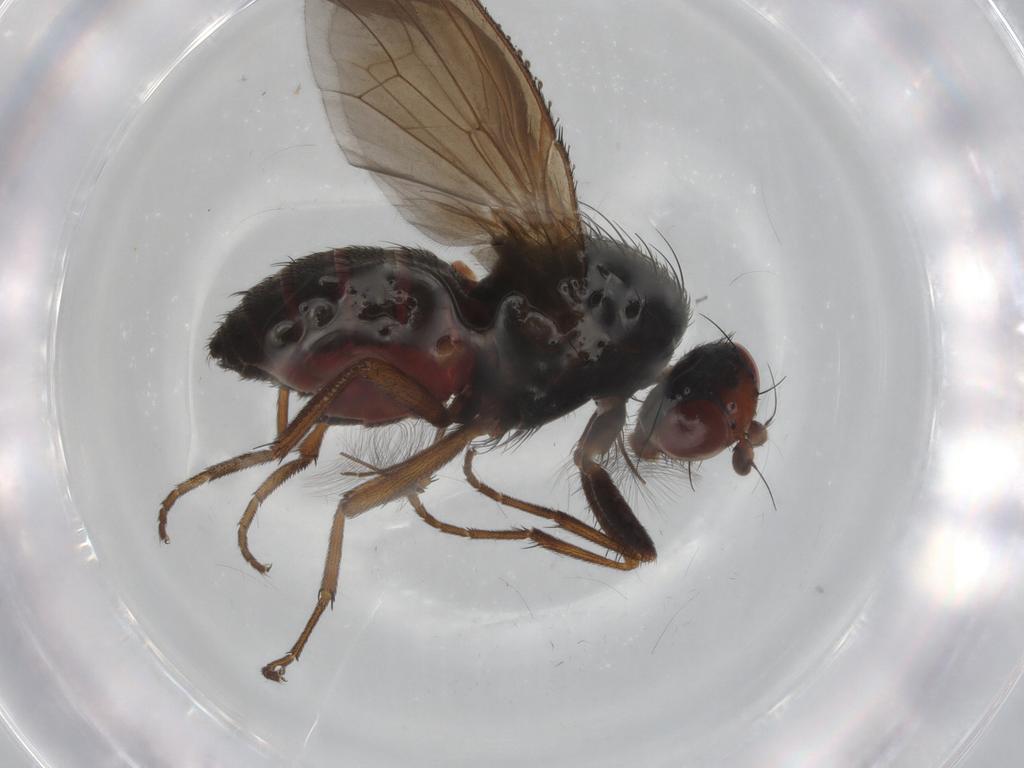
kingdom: Animalia
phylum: Arthropoda
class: Insecta
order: Diptera
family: Heleomyzidae
